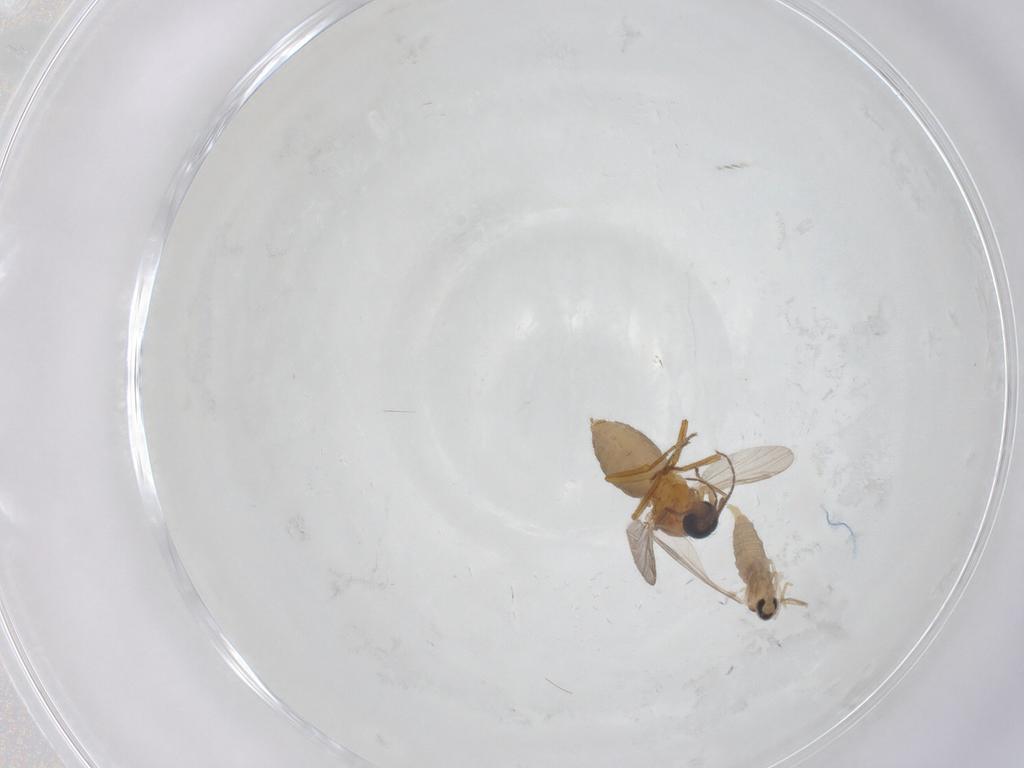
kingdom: Animalia
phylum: Arthropoda
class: Insecta
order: Diptera
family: Ceratopogonidae
